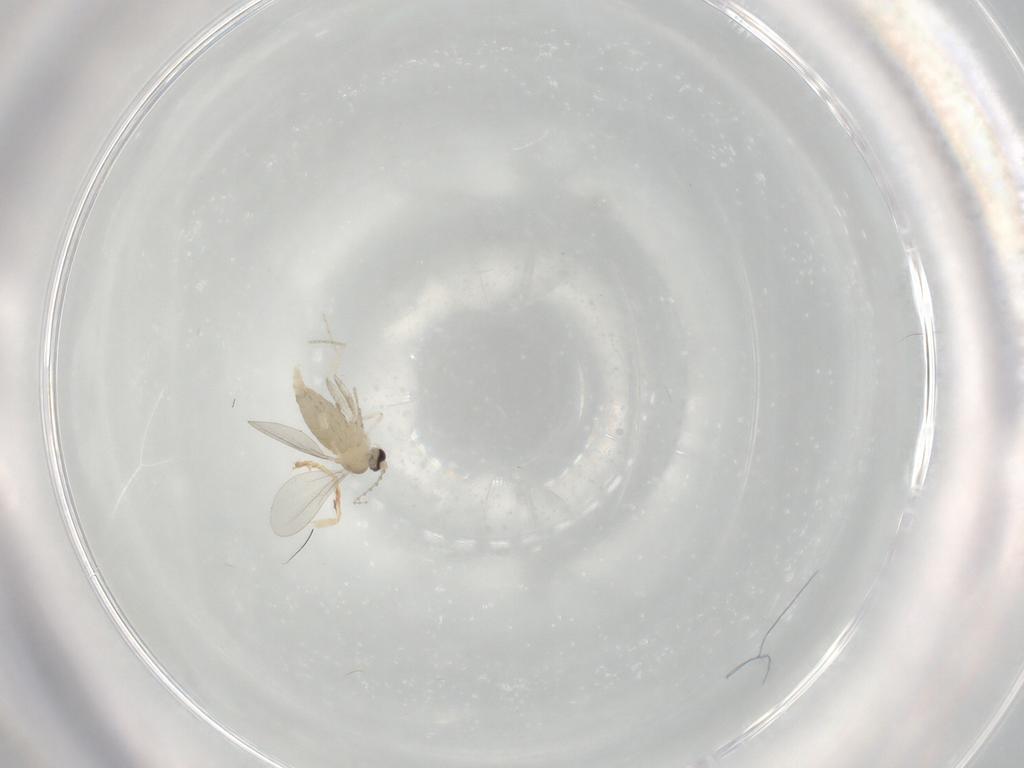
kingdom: Animalia
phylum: Arthropoda
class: Insecta
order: Diptera
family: Cecidomyiidae
